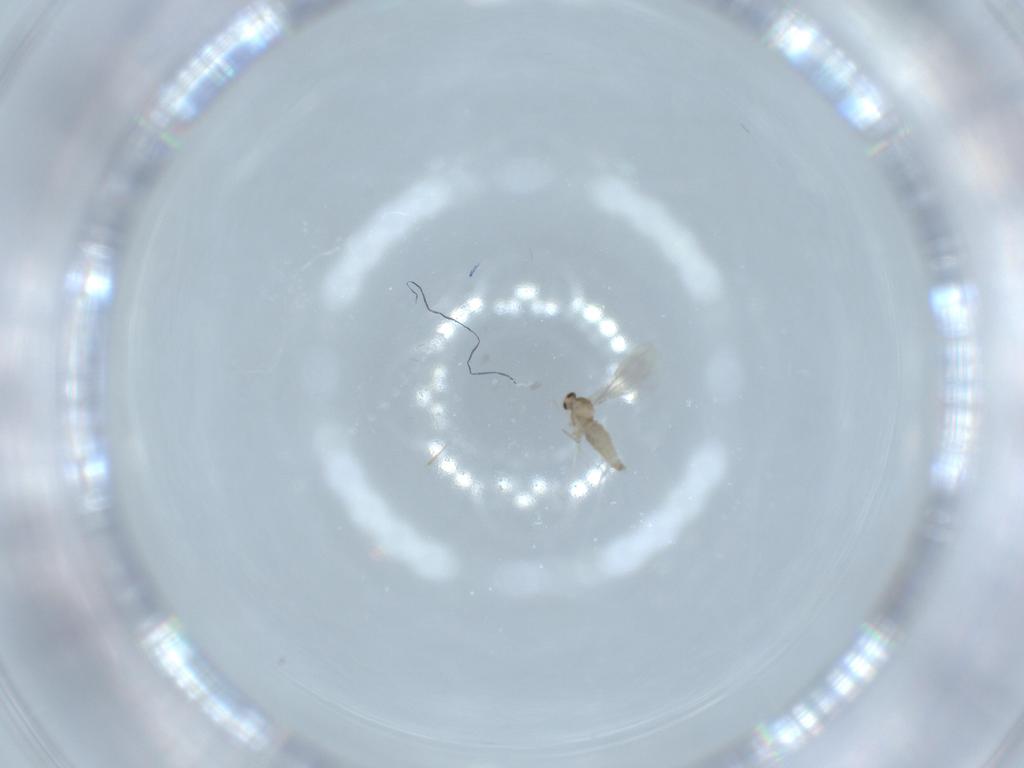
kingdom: Animalia
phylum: Arthropoda
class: Insecta
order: Diptera
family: Cecidomyiidae
